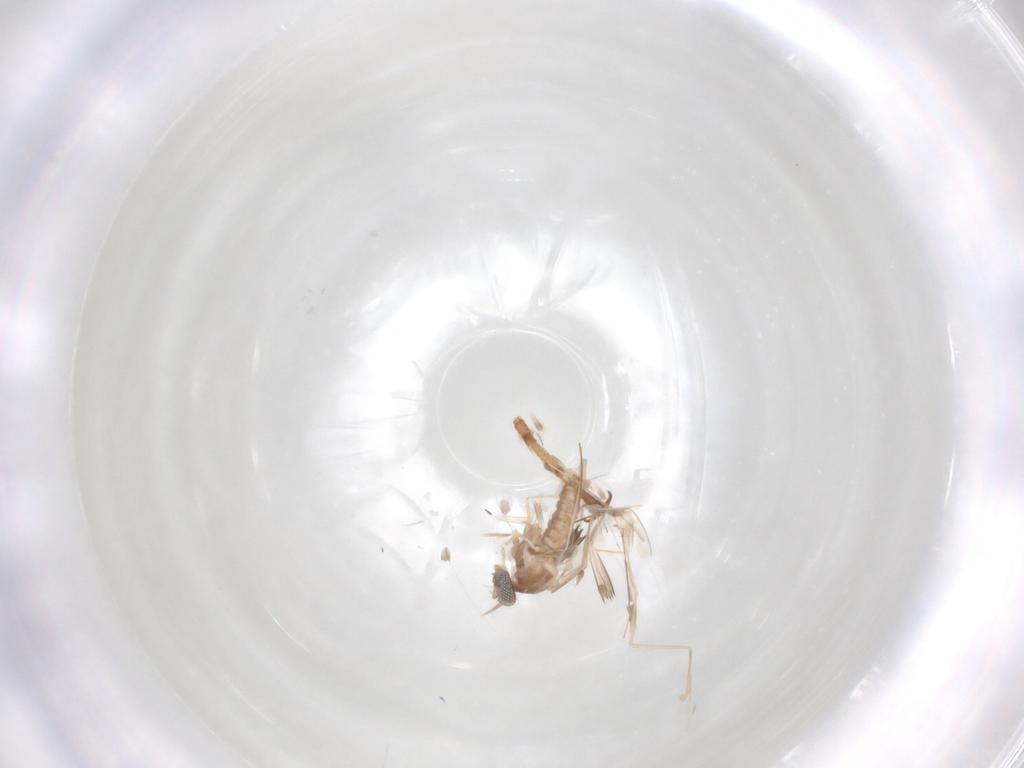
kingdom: Animalia
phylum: Arthropoda
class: Insecta
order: Diptera
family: Cecidomyiidae
